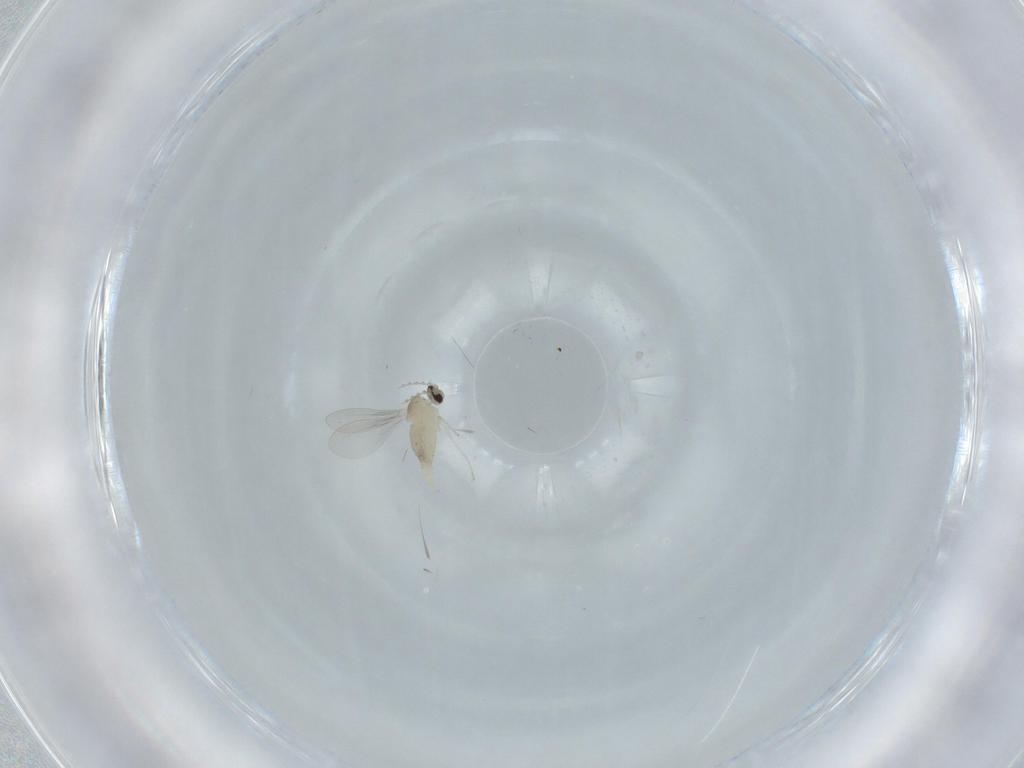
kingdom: Animalia
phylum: Arthropoda
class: Insecta
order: Diptera
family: Cecidomyiidae
